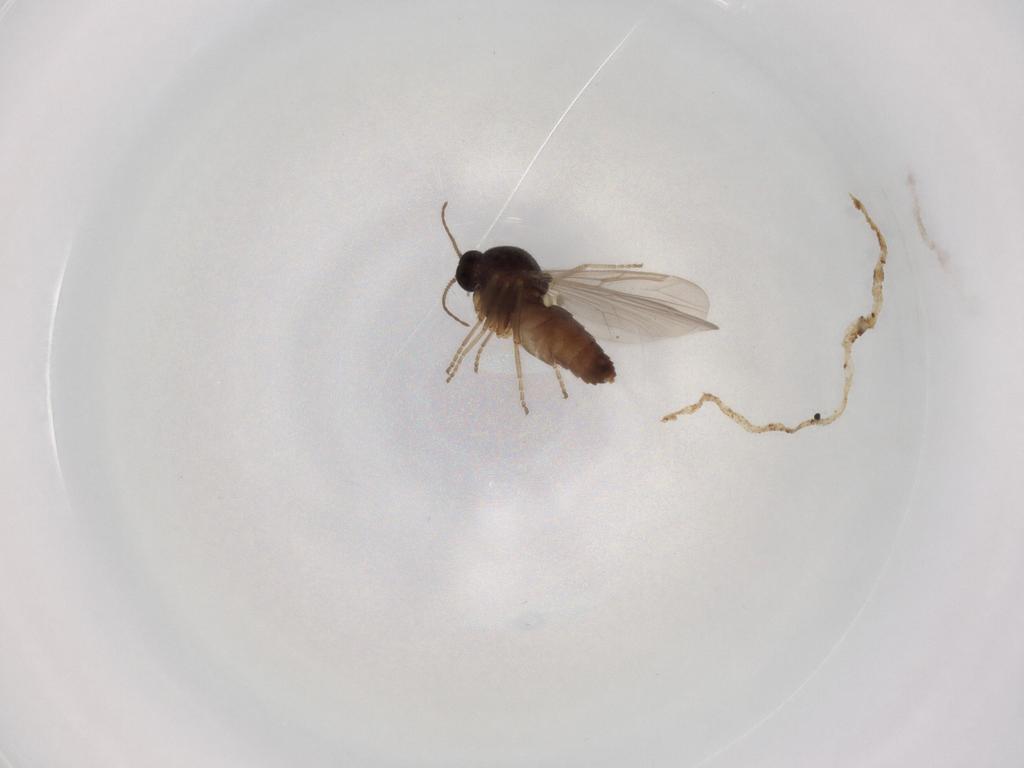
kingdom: Animalia
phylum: Arthropoda
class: Insecta
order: Diptera
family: Ceratopogonidae
